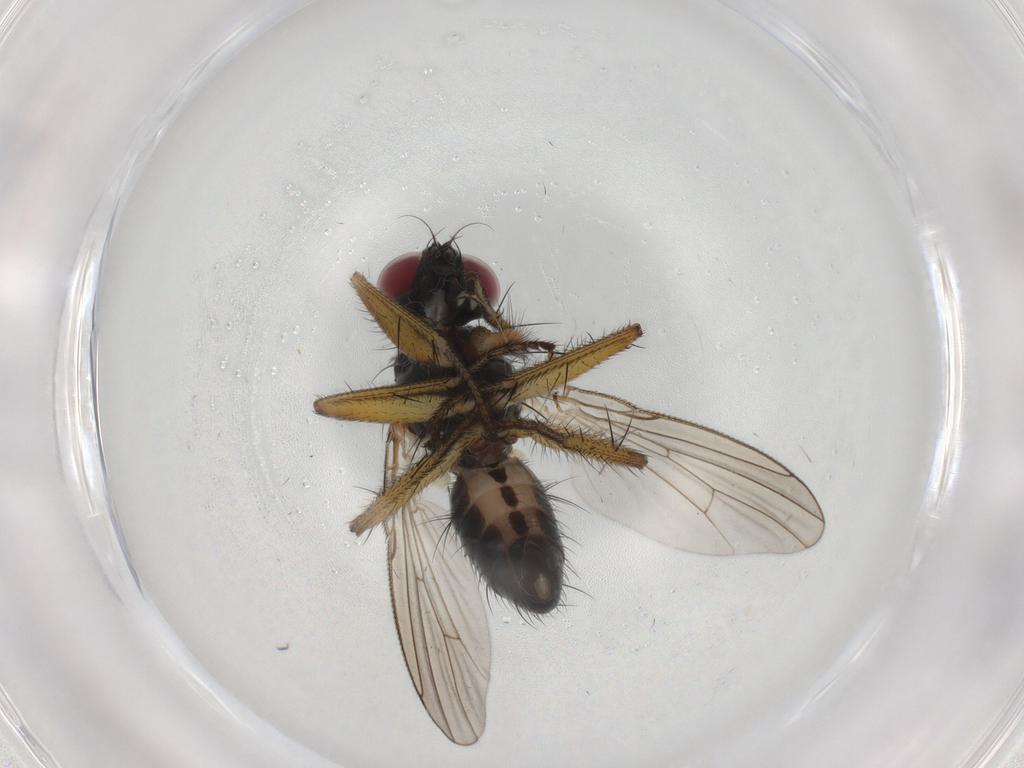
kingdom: Animalia
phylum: Arthropoda
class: Insecta
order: Diptera
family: Muscidae
